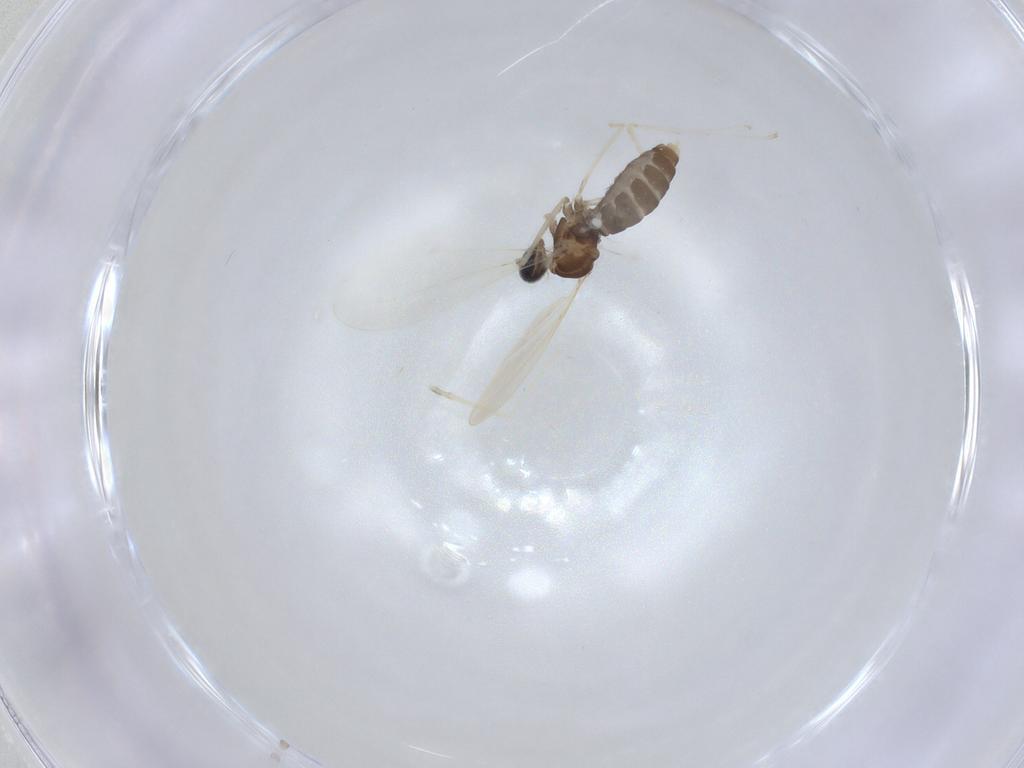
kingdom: Animalia
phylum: Arthropoda
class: Insecta
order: Diptera
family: Cecidomyiidae
